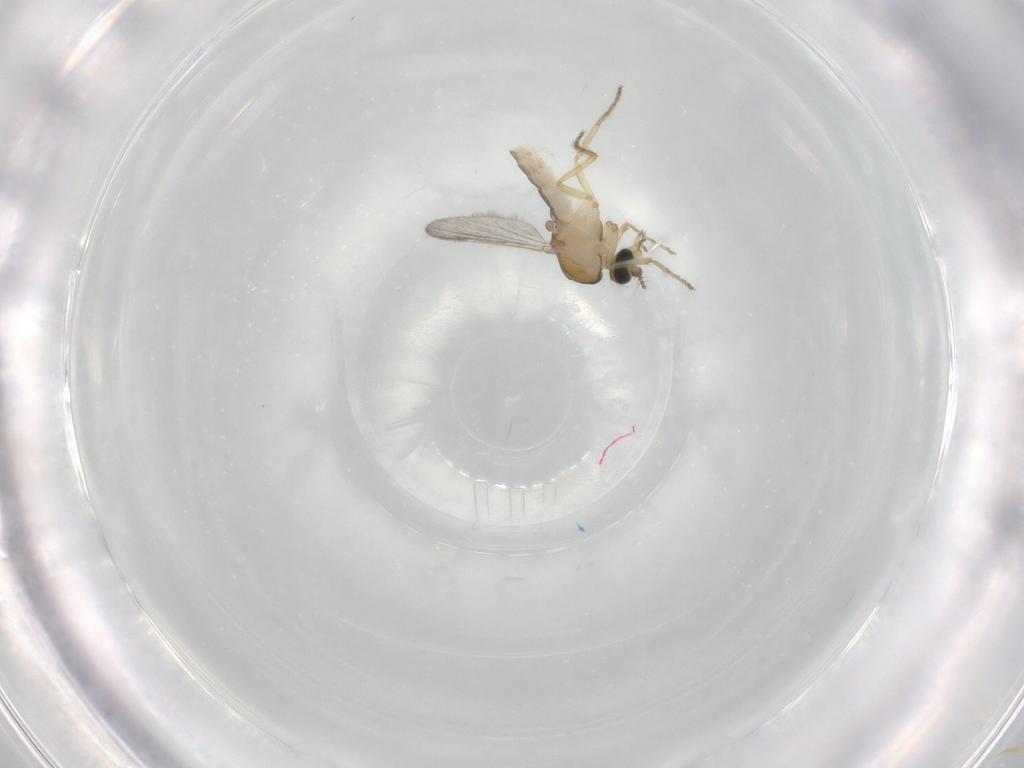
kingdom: Animalia
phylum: Arthropoda
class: Insecta
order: Diptera
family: Ceratopogonidae
